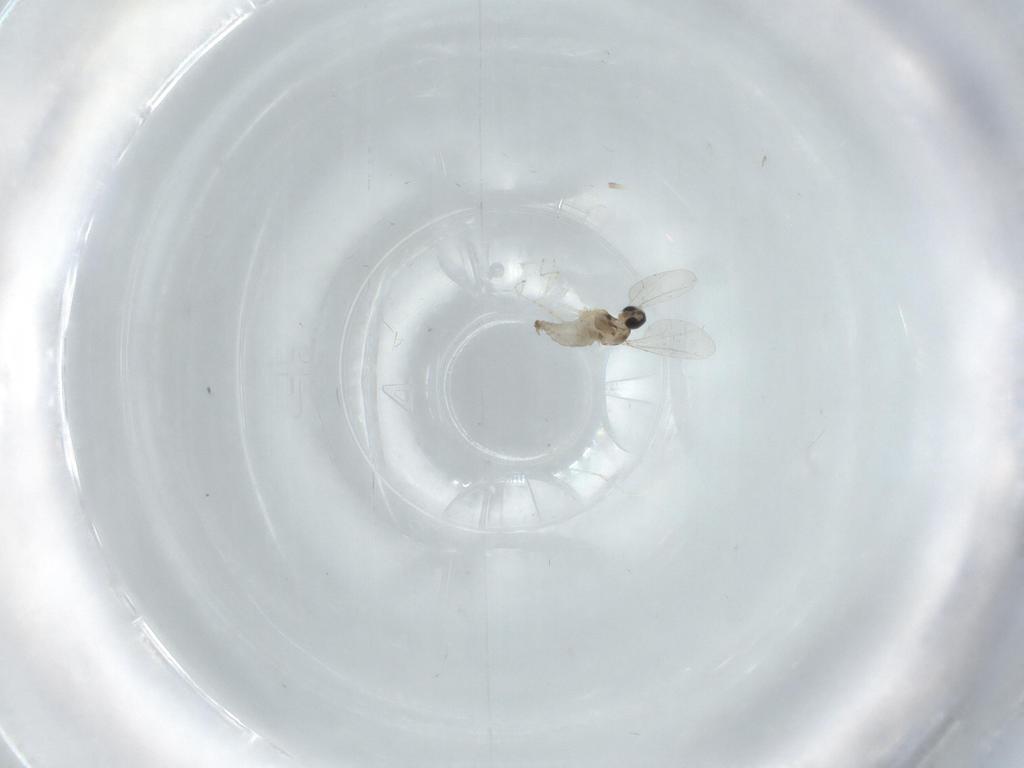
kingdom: Animalia
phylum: Arthropoda
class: Insecta
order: Diptera
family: Cecidomyiidae
